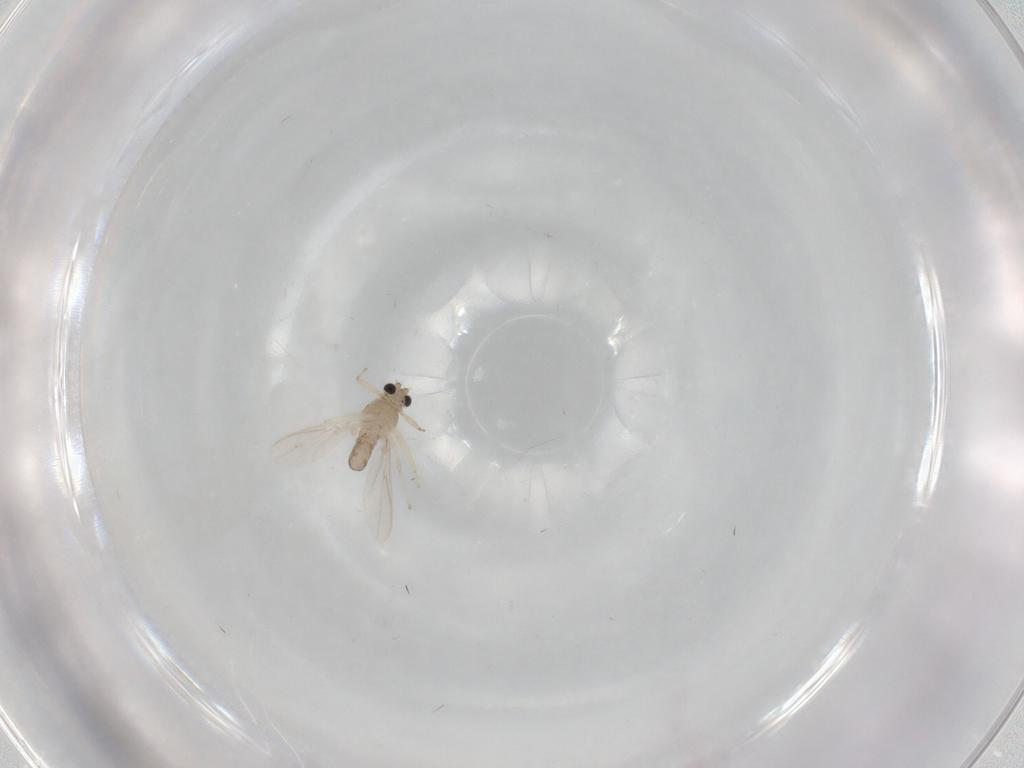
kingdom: Animalia
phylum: Arthropoda
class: Insecta
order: Diptera
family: Chironomidae
